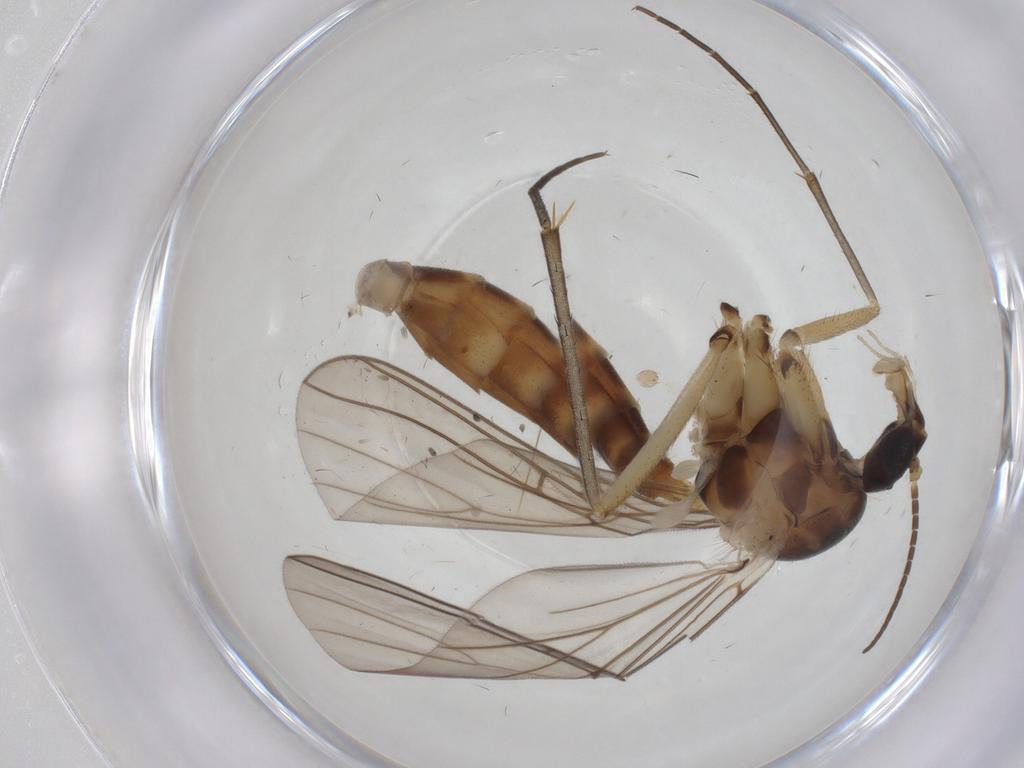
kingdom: Animalia
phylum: Arthropoda
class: Insecta
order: Diptera
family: Mycetophilidae
